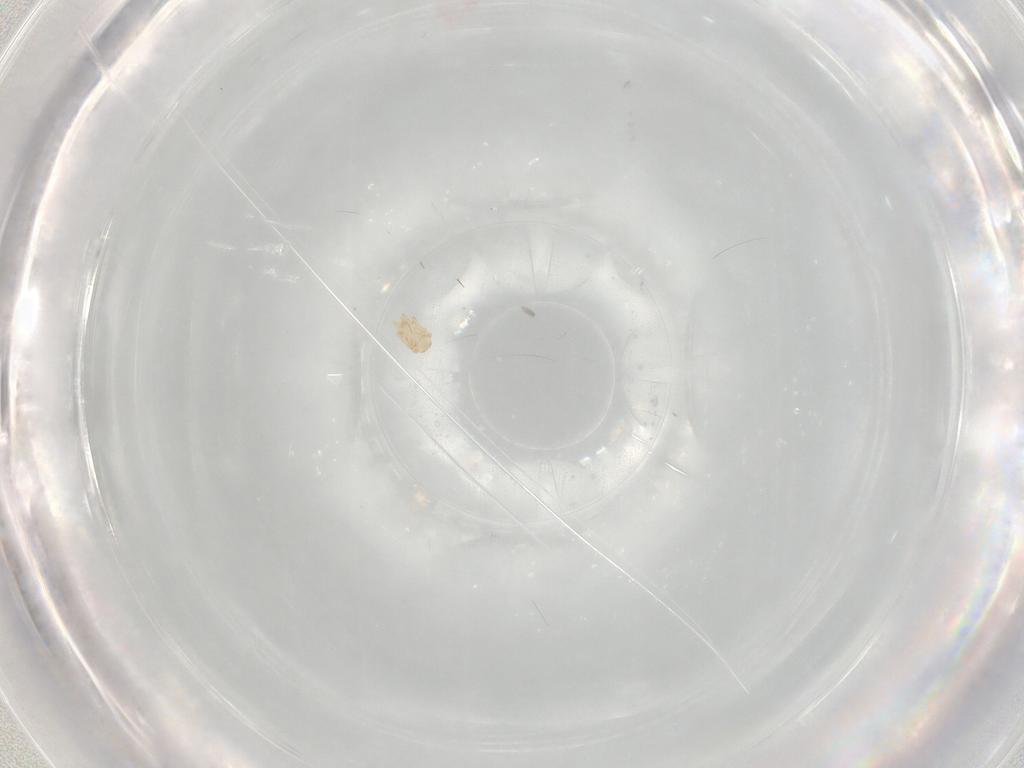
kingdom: Animalia
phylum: Arthropoda
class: Arachnida
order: Mesostigmata
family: Halolaelapidae
